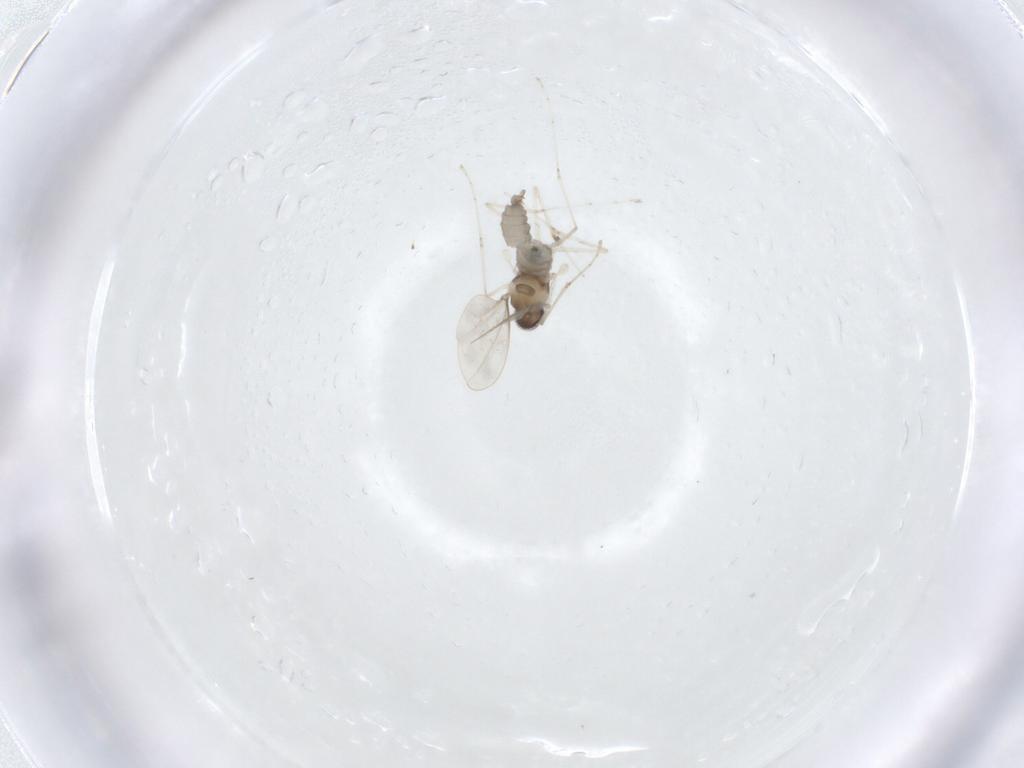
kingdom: Animalia
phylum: Arthropoda
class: Insecta
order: Diptera
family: Cecidomyiidae
